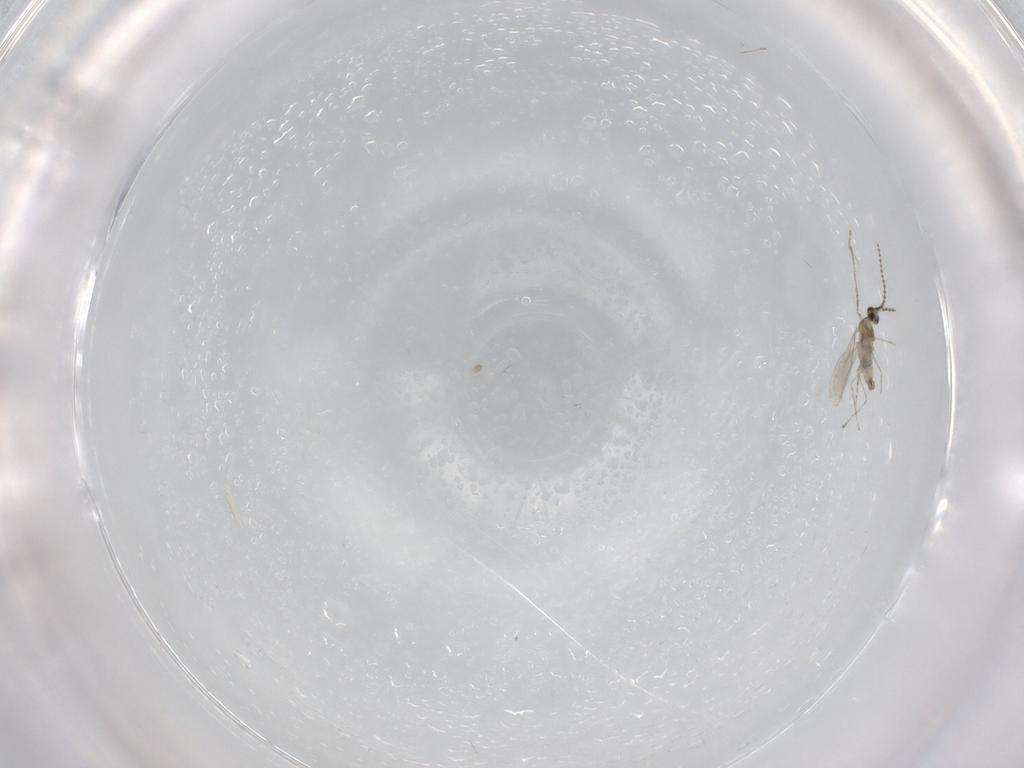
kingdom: Animalia
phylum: Arthropoda
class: Insecta
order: Diptera
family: Cecidomyiidae
